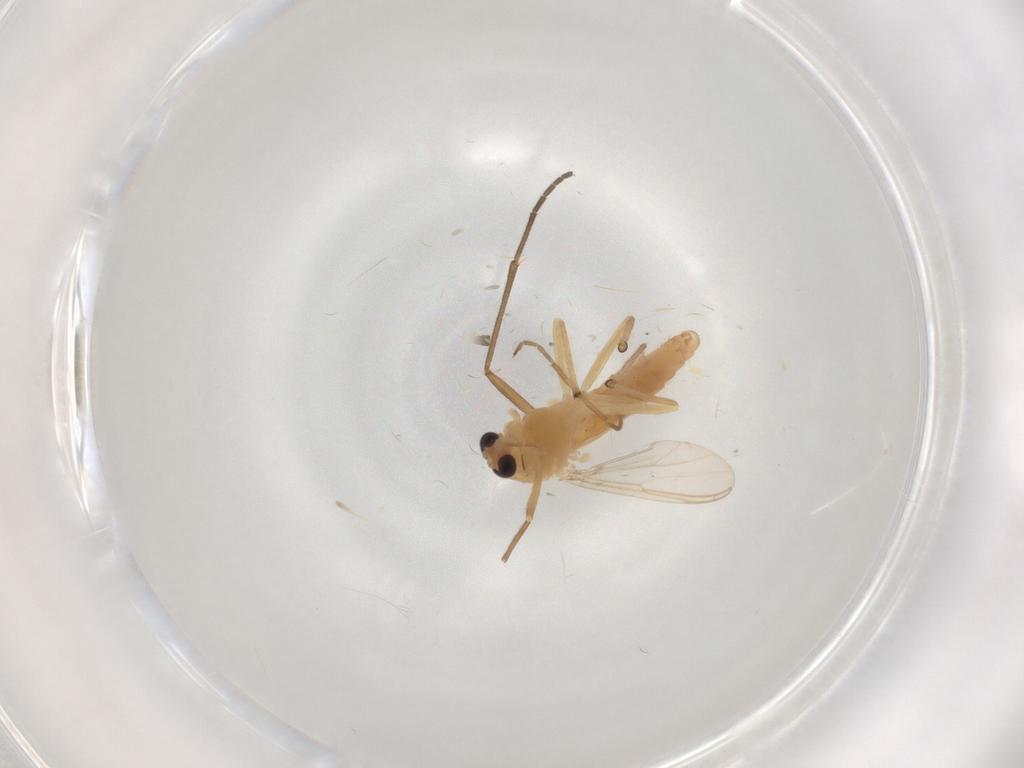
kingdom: Animalia
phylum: Arthropoda
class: Insecta
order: Diptera
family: Chironomidae
